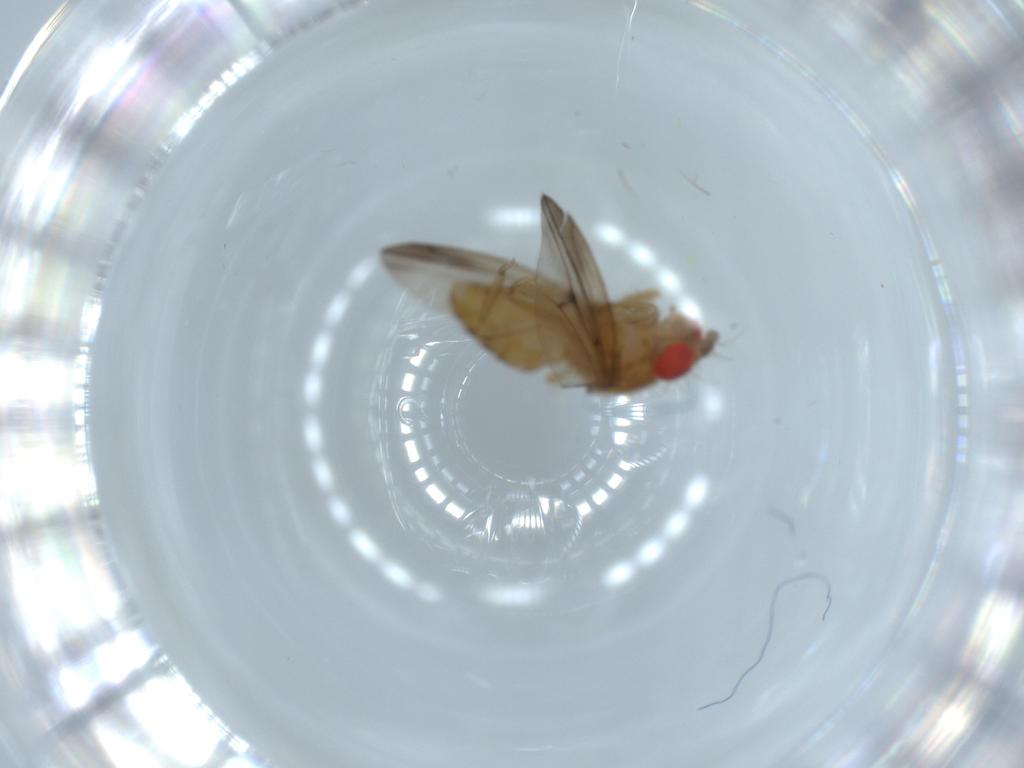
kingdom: Animalia
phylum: Arthropoda
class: Insecta
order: Diptera
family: Drosophilidae
